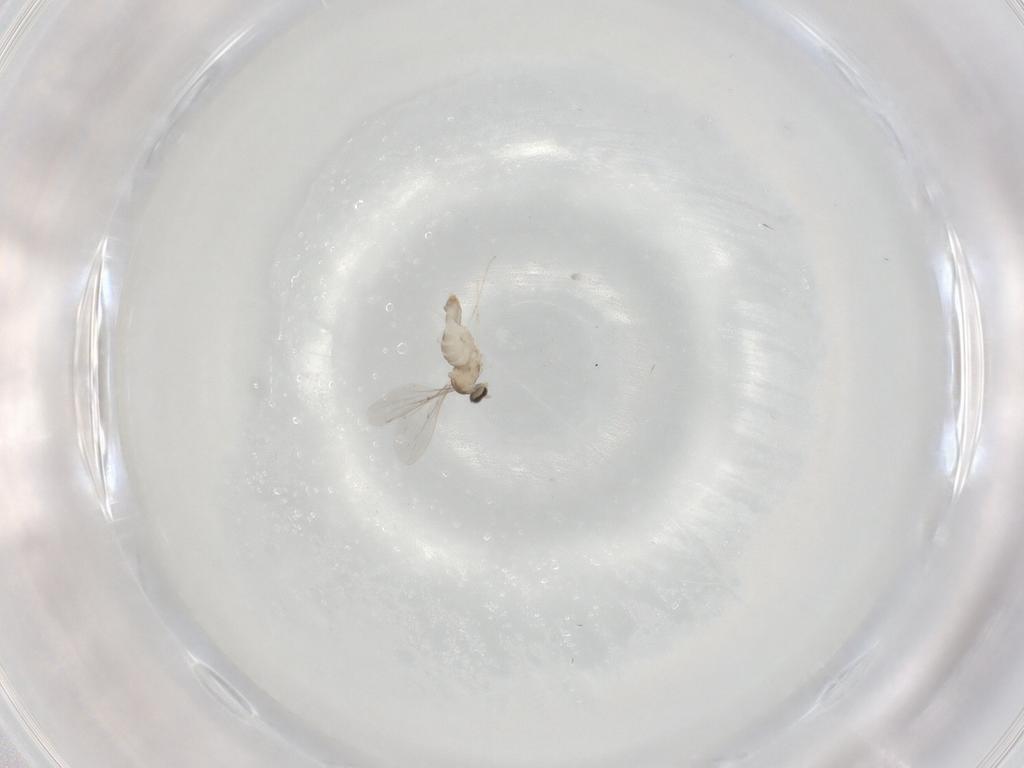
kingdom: Animalia
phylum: Arthropoda
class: Insecta
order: Diptera
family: Cecidomyiidae
